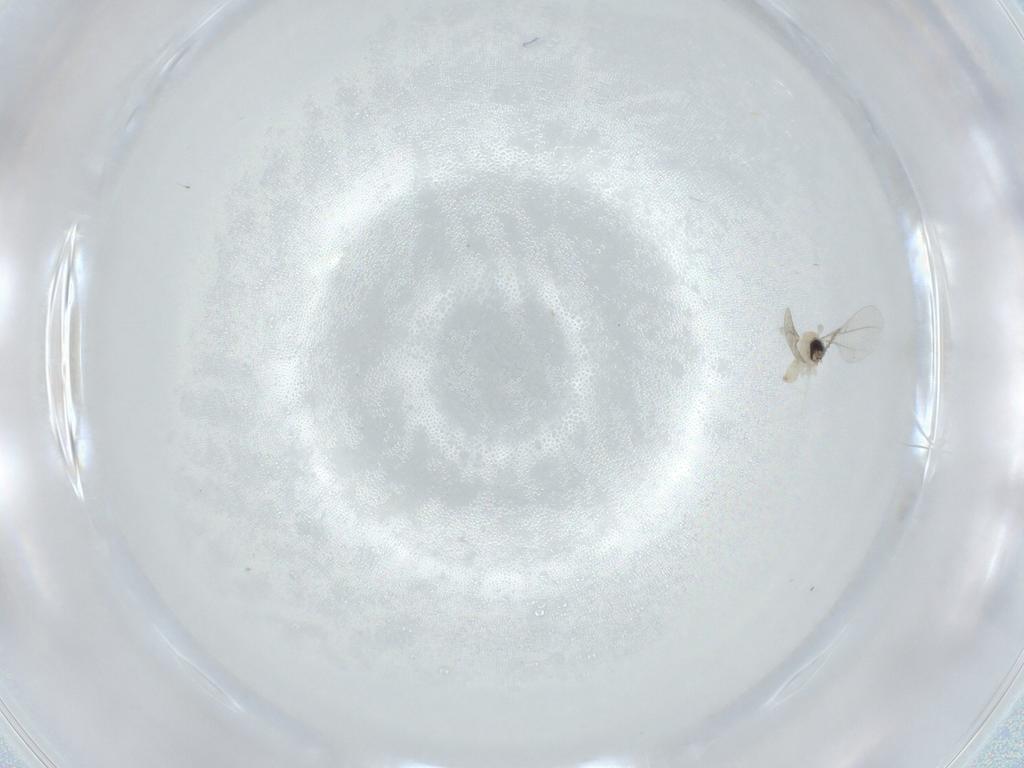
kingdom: Animalia
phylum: Arthropoda
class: Insecta
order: Diptera
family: Cecidomyiidae
